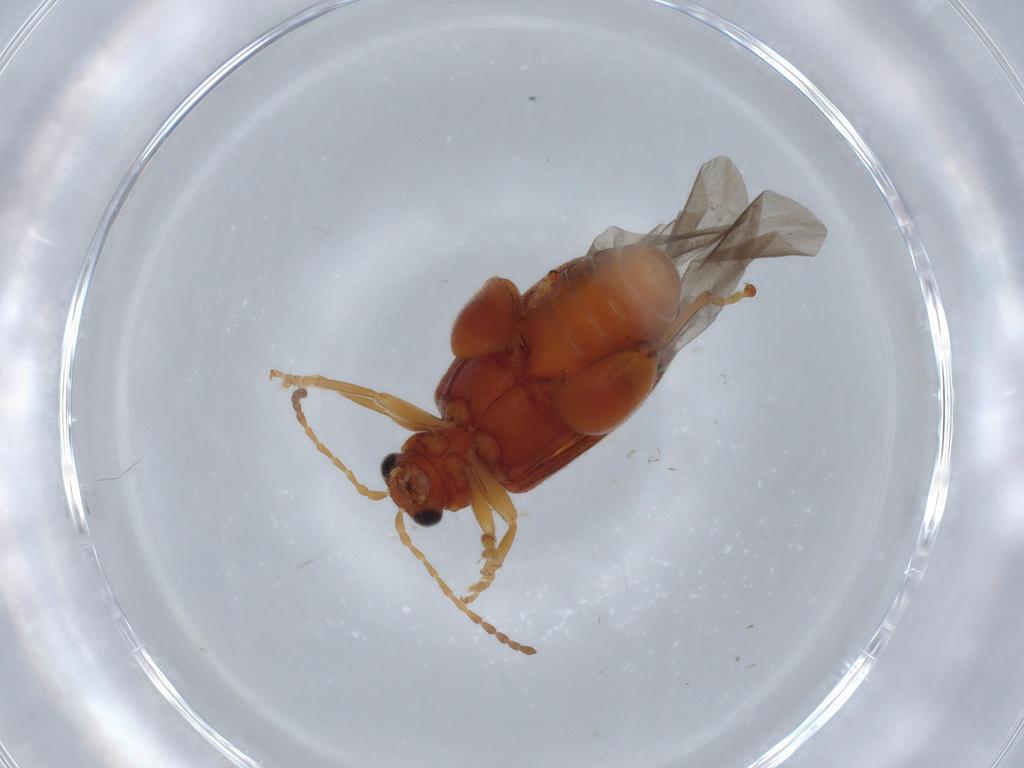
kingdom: Animalia
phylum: Arthropoda
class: Insecta
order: Coleoptera
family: Chrysomelidae
